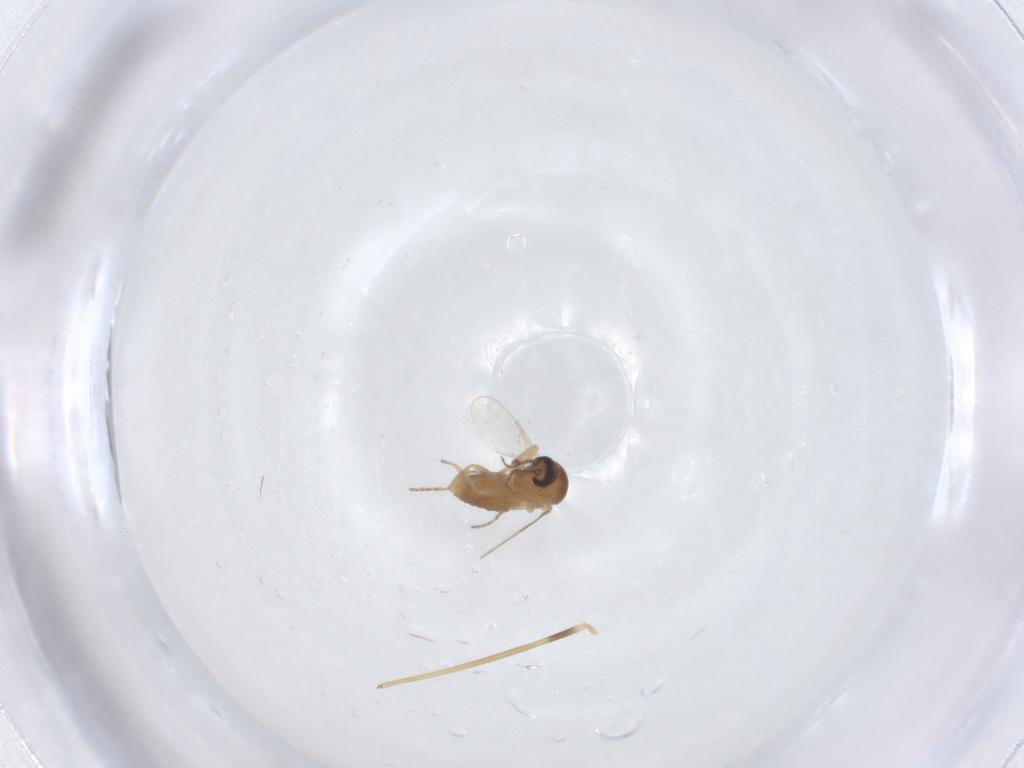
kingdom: Animalia
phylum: Arthropoda
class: Insecta
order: Diptera
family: Ceratopogonidae
